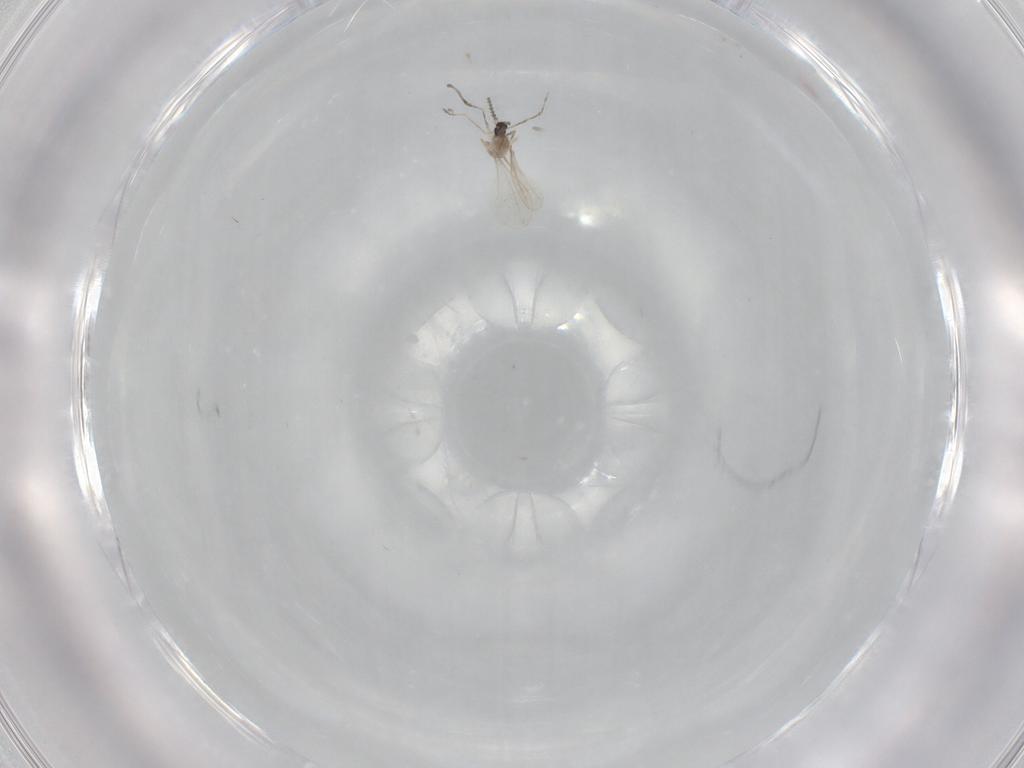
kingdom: Animalia
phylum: Arthropoda
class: Insecta
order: Diptera
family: Cecidomyiidae
